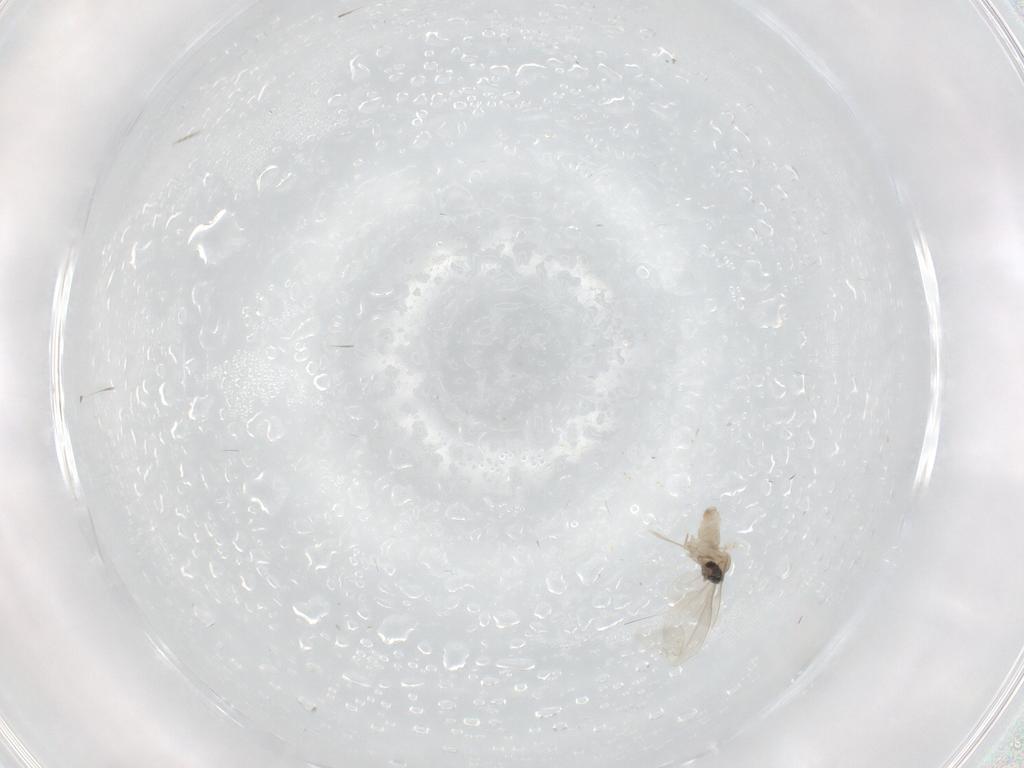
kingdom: Animalia
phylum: Arthropoda
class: Insecta
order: Diptera
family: Cecidomyiidae
